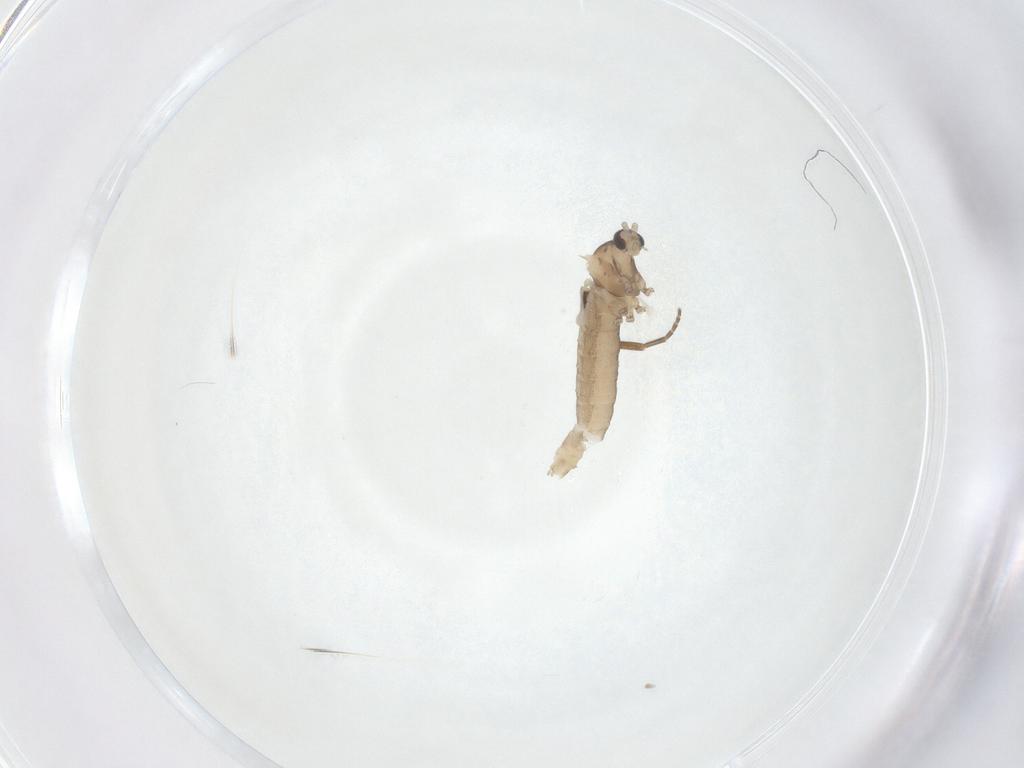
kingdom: Animalia
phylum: Arthropoda
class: Insecta
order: Diptera
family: Cecidomyiidae
